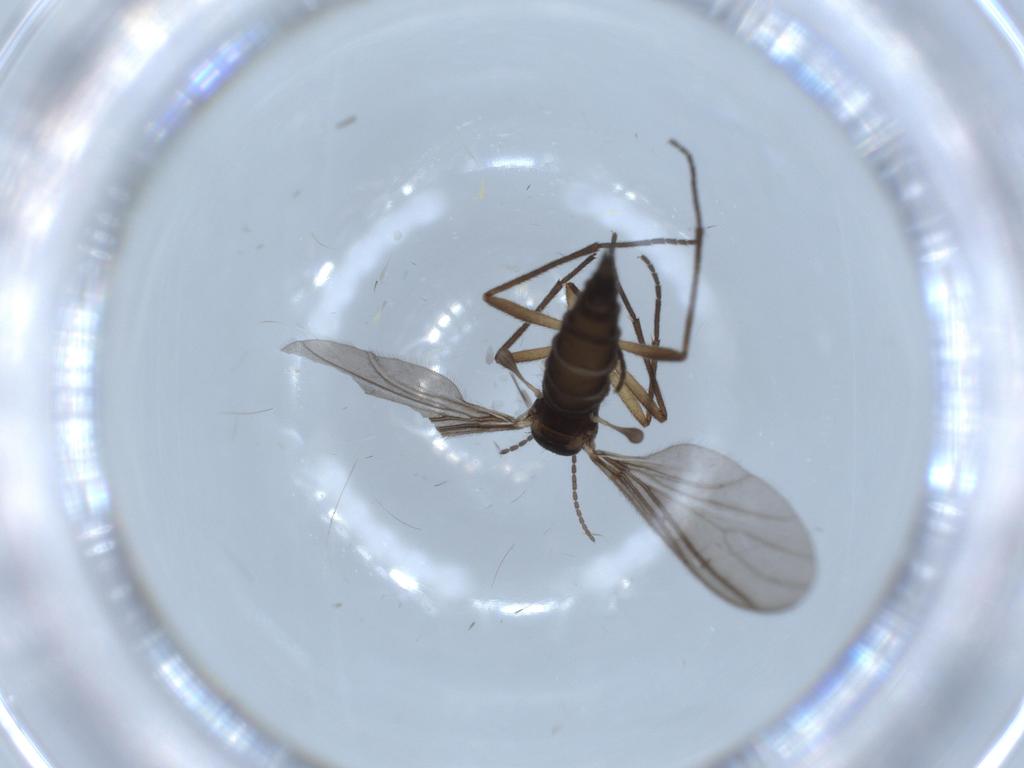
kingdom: Animalia
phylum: Arthropoda
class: Insecta
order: Diptera
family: Sciaridae
